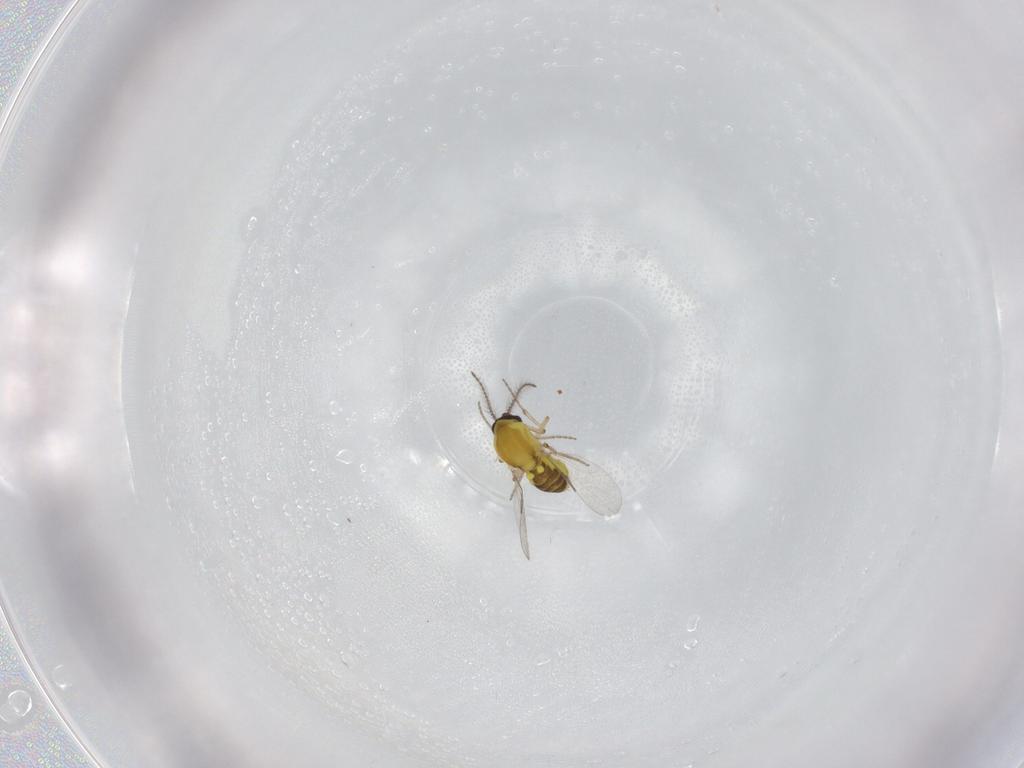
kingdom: Animalia
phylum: Arthropoda
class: Insecta
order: Diptera
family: Ceratopogonidae
